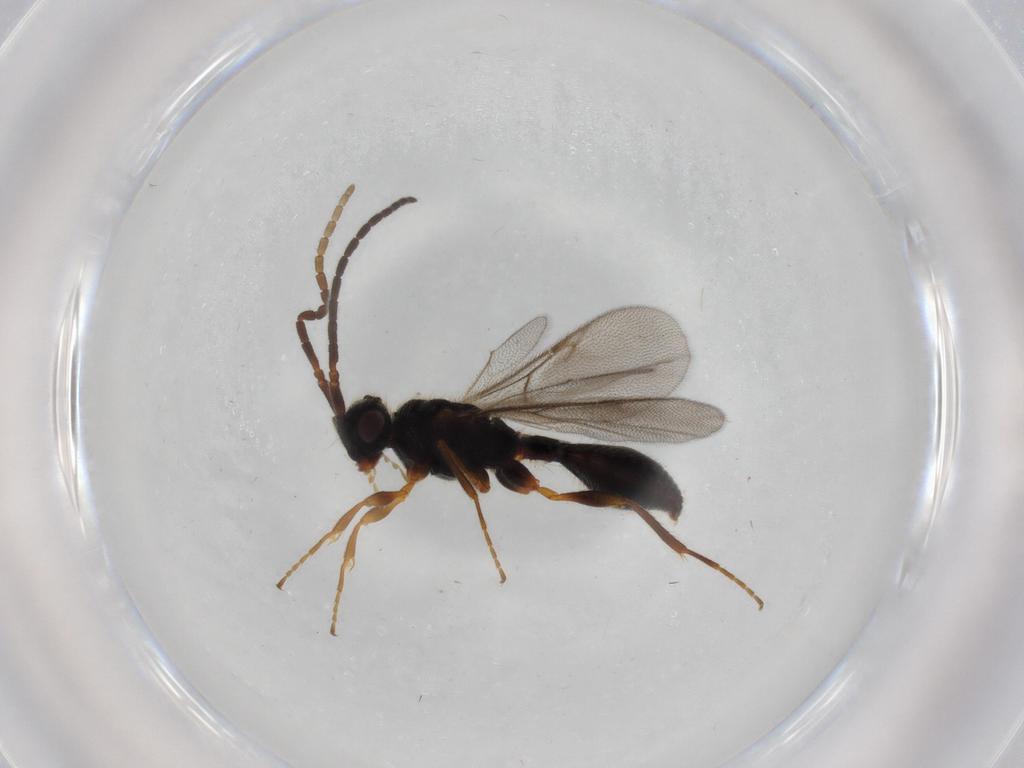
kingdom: Animalia
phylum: Arthropoda
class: Insecta
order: Hymenoptera
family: Diapriidae
